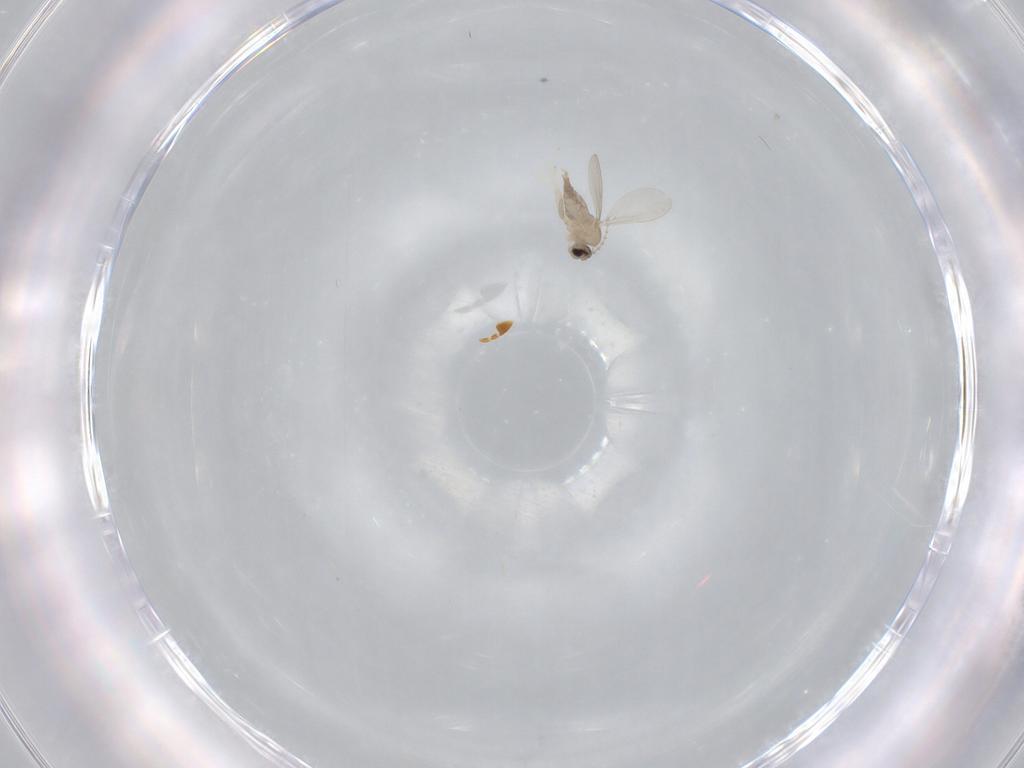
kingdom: Animalia
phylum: Arthropoda
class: Insecta
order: Diptera
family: Cecidomyiidae
